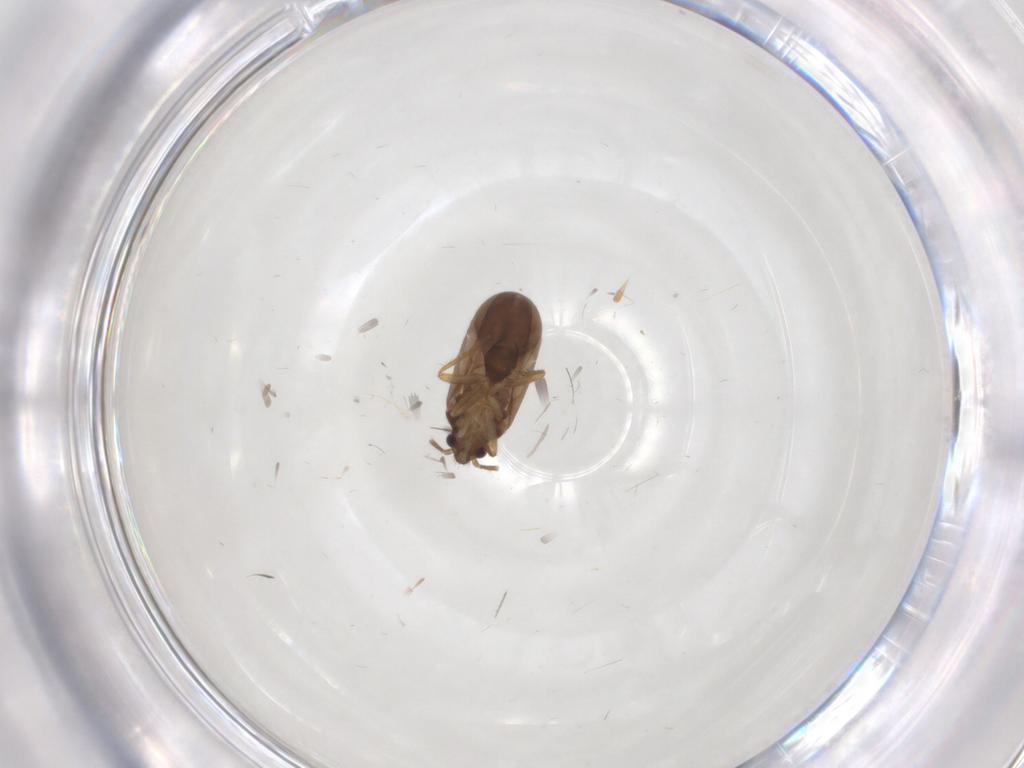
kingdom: Animalia
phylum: Arthropoda
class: Insecta
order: Hemiptera
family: Ceratocombidae
